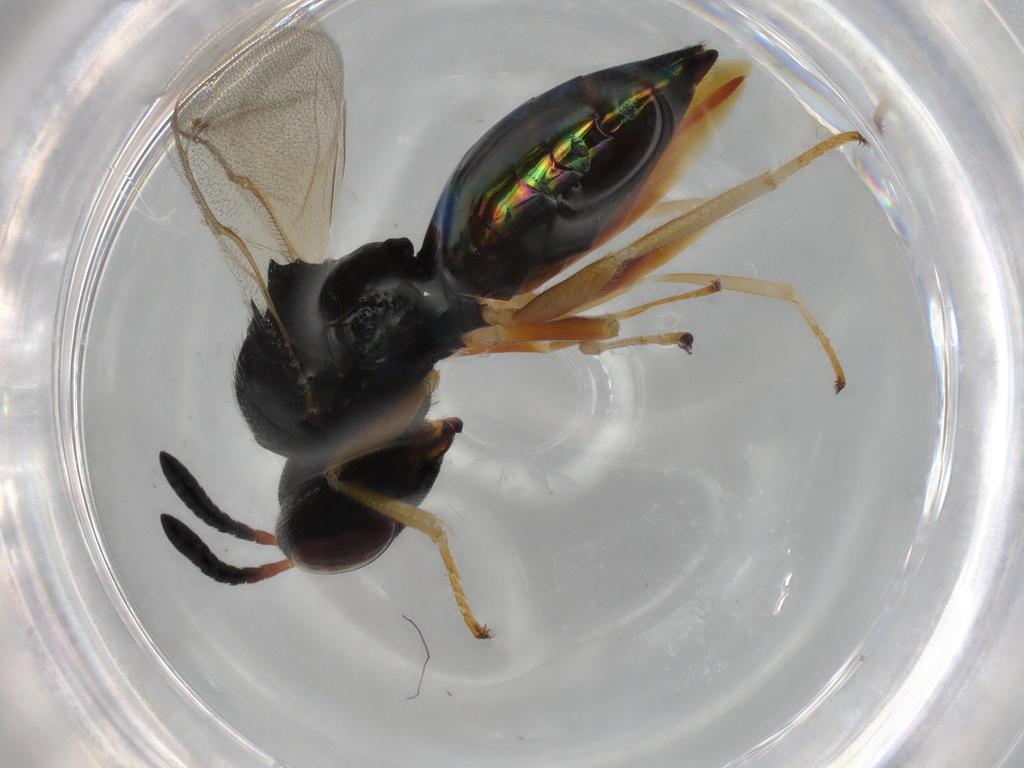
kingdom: Animalia
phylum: Arthropoda
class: Insecta
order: Hymenoptera
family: Pteromalidae
